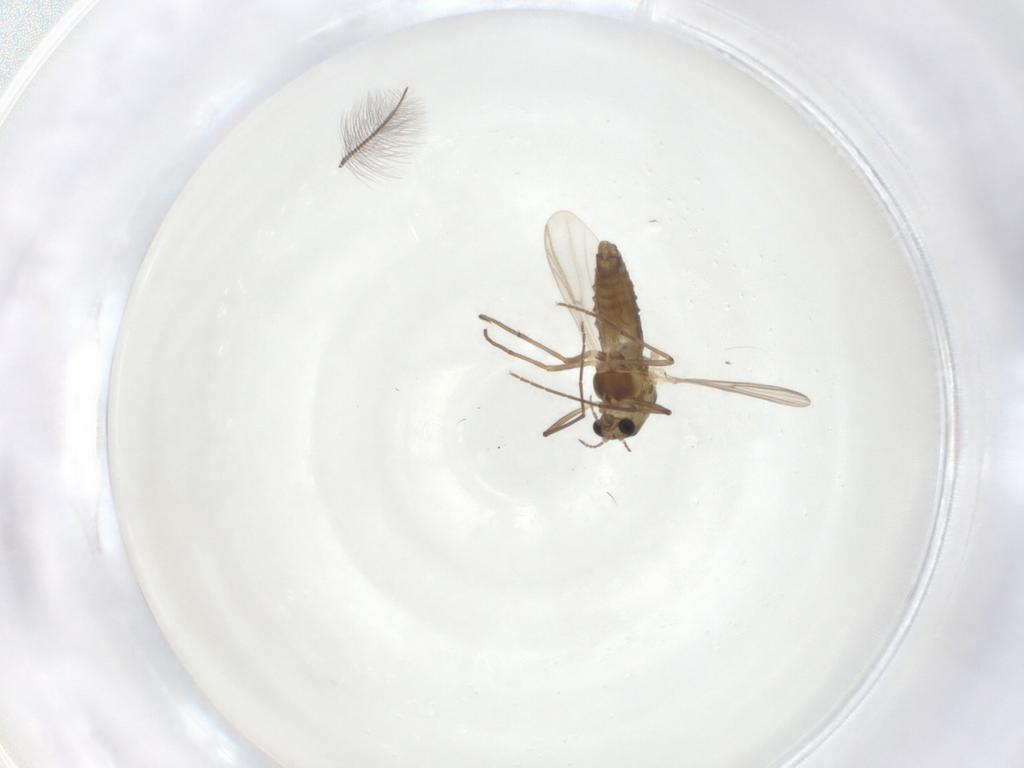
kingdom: Animalia
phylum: Arthropoda
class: Insecta
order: Diptera
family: Chironomidae
